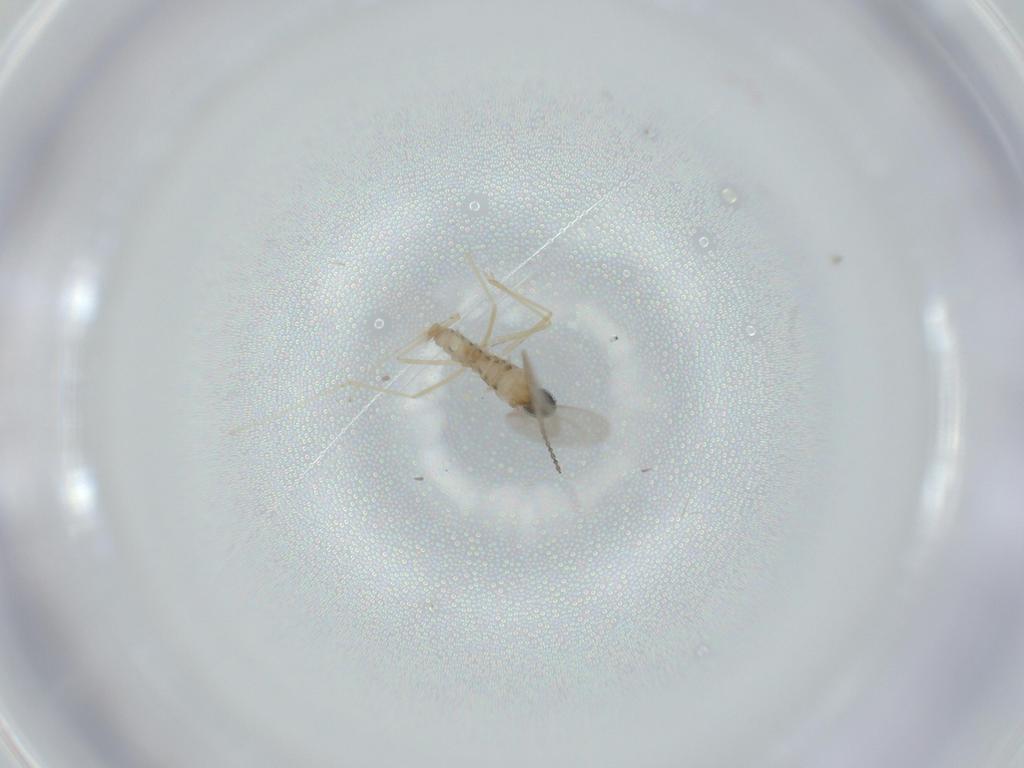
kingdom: Animalia
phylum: Arthropoda
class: Insecta
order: Diptera
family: Cecidomyiidae
